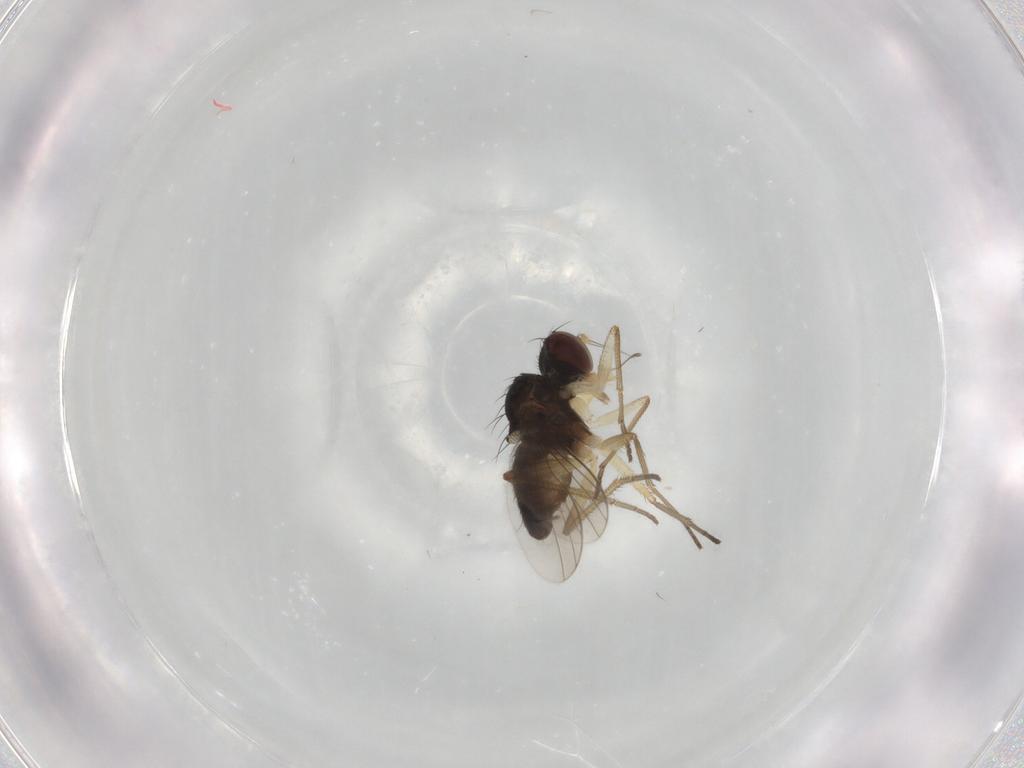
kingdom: Animalia
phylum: Arthropoda
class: Insecta
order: Diptera
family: Dolichopodidae
